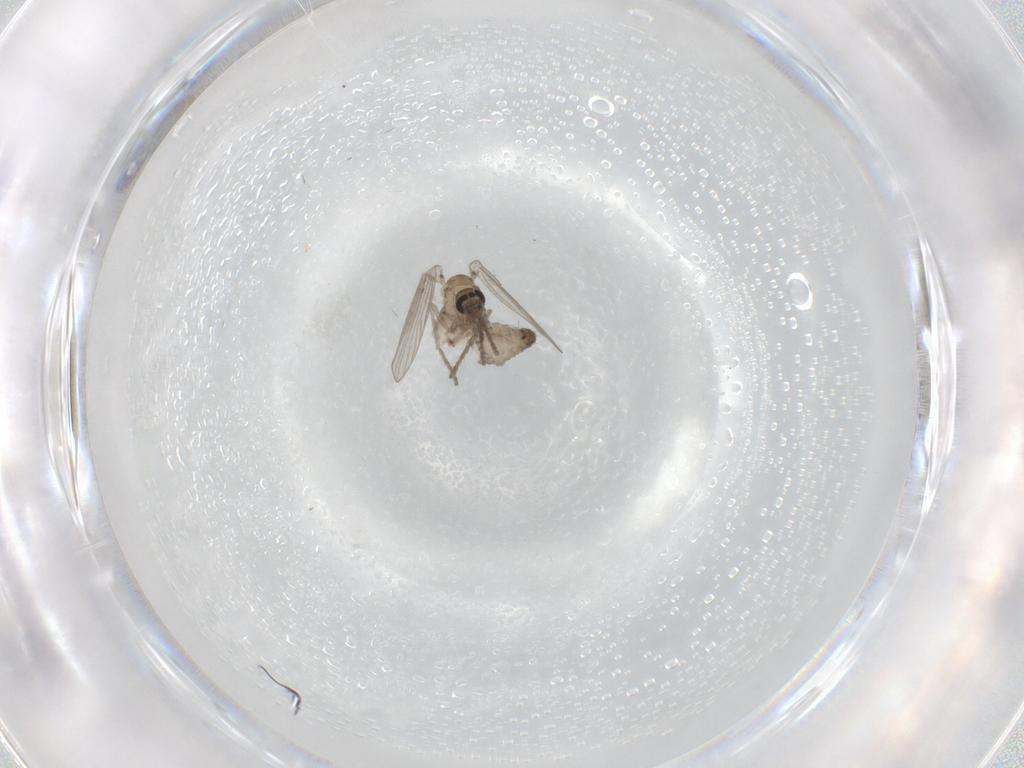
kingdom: Animalia
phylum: Arthropoda
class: Insecta
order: Diptera
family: Psychodidae
